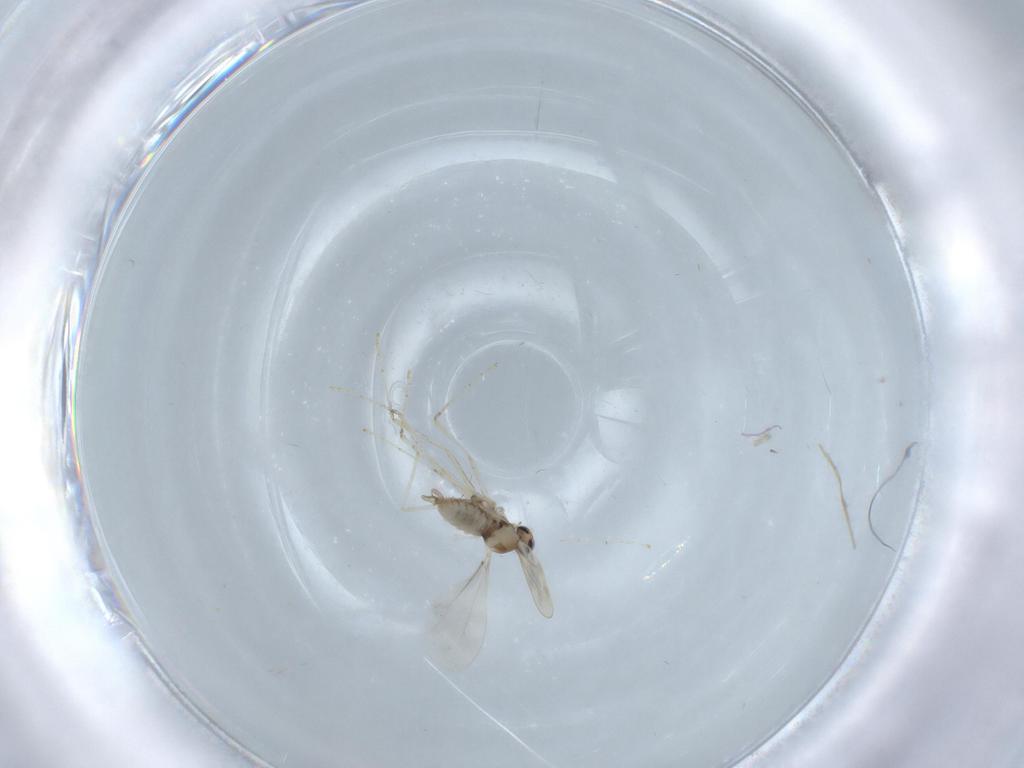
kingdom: Animalia
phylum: Arthropoda
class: Insecta
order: Diptera
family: Cecidomyiidae
